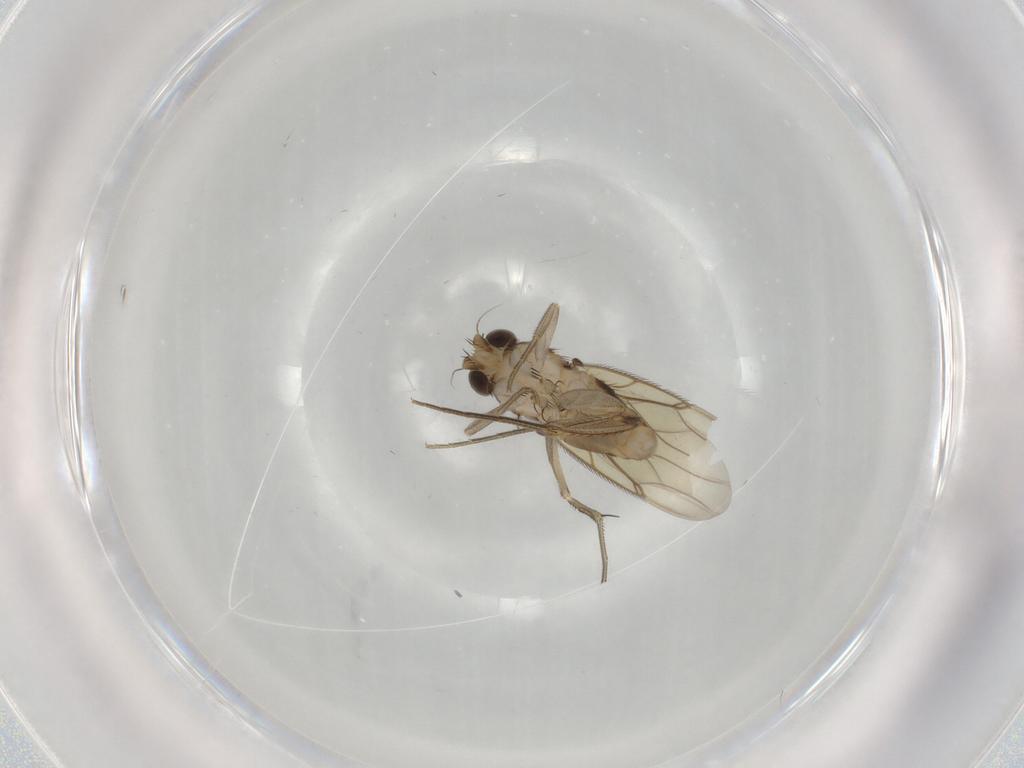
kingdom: Animalia
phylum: Arthropoda
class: Insecta
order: Diptera
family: Phoridae
